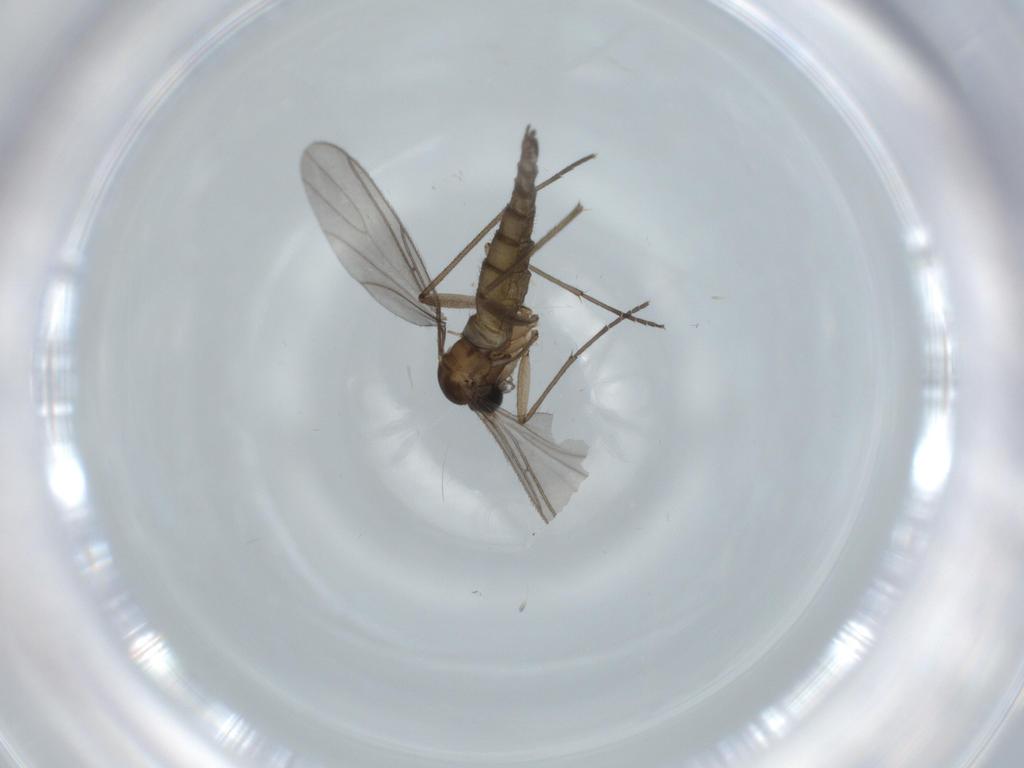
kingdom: Animalia
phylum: Arthropoda
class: Insecta
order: Diptera
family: Sciaridae
